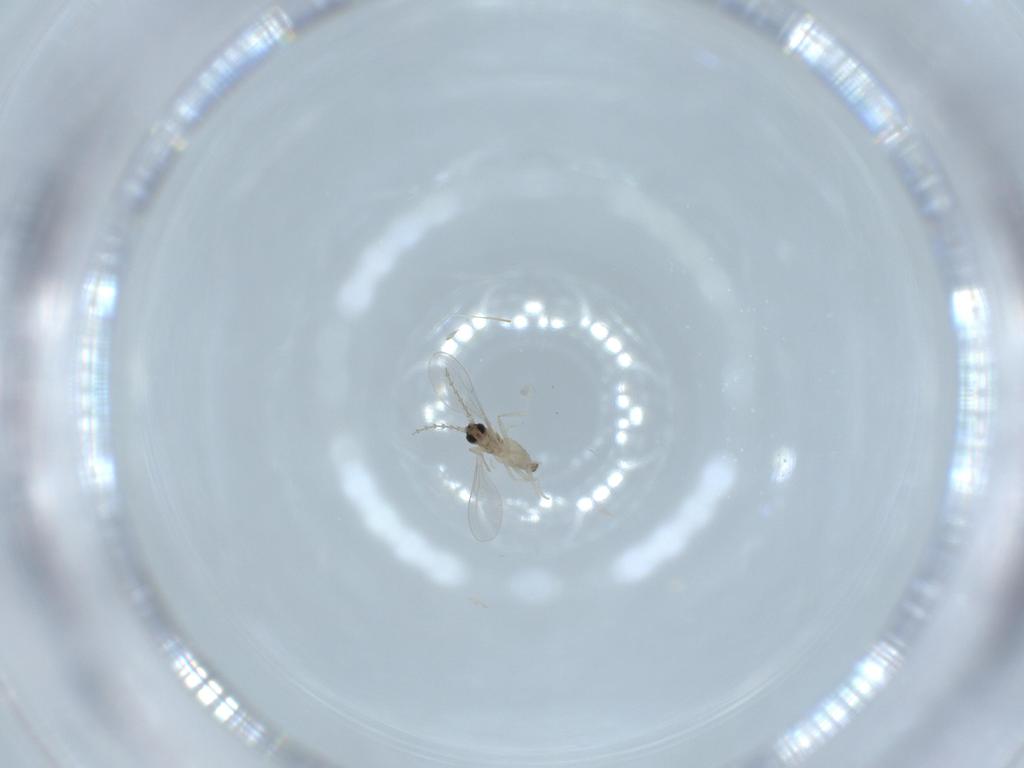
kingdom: Animalia
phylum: Arthropoda
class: Insecta
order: Diptera
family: Cecidomyiidae
